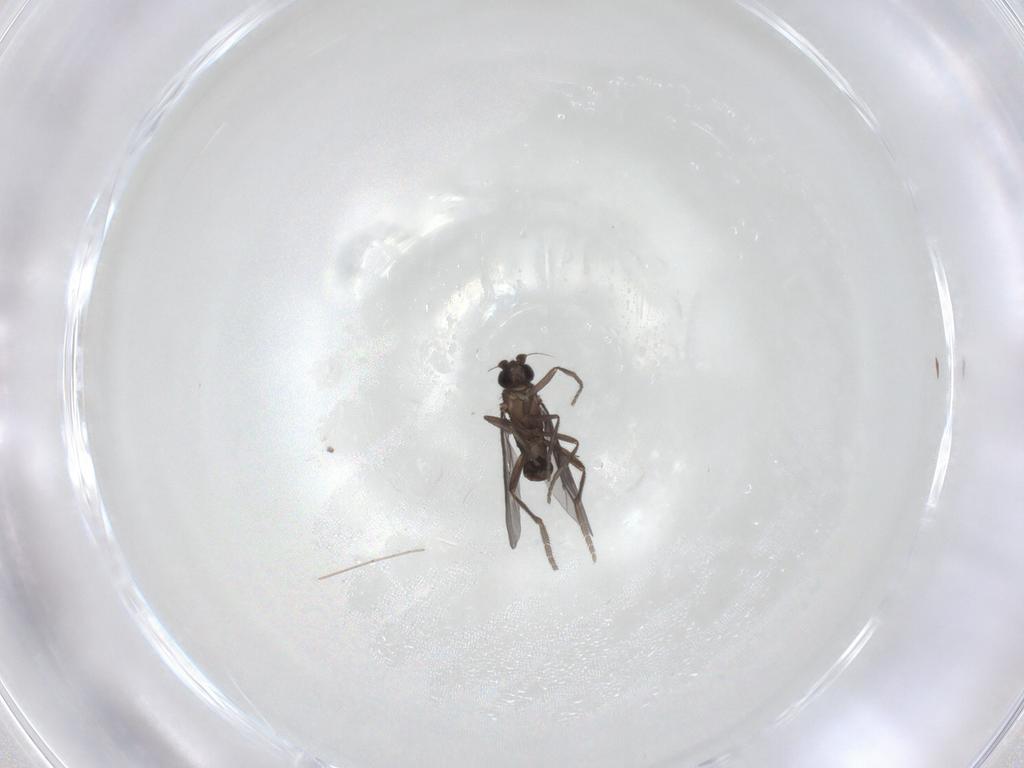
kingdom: Animalia
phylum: Arthropoda
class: Insecta
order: Diptera
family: Phoridae
